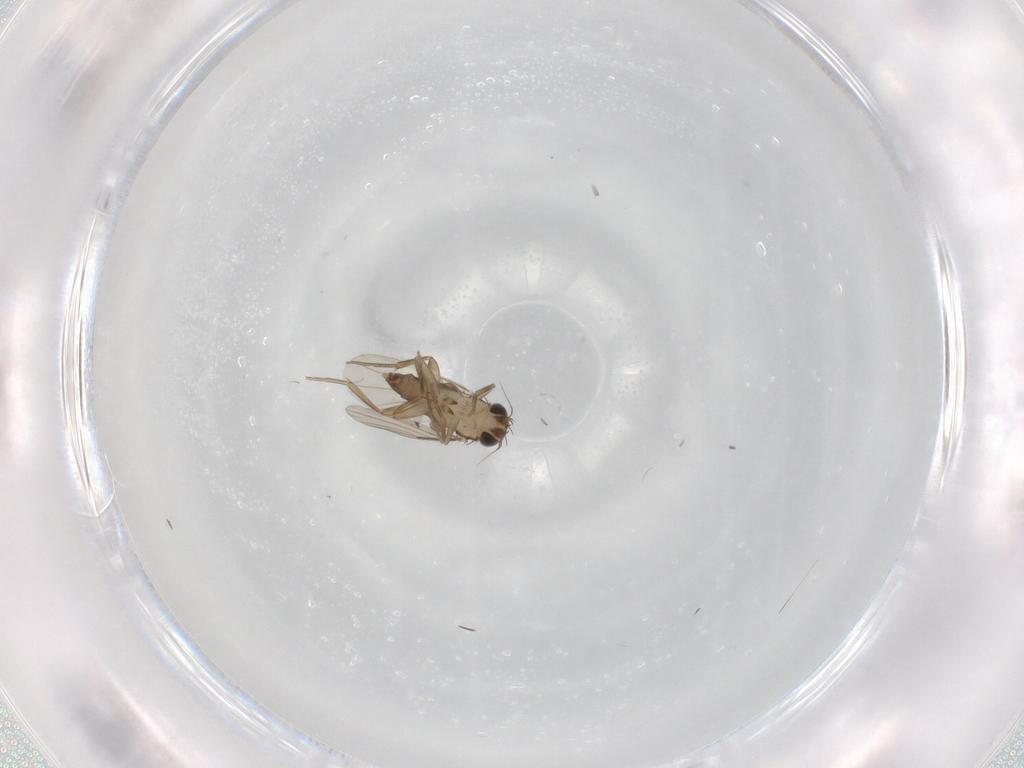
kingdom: Animalia
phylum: Arthropoda
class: Insecta
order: Diptera
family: Phoridae
